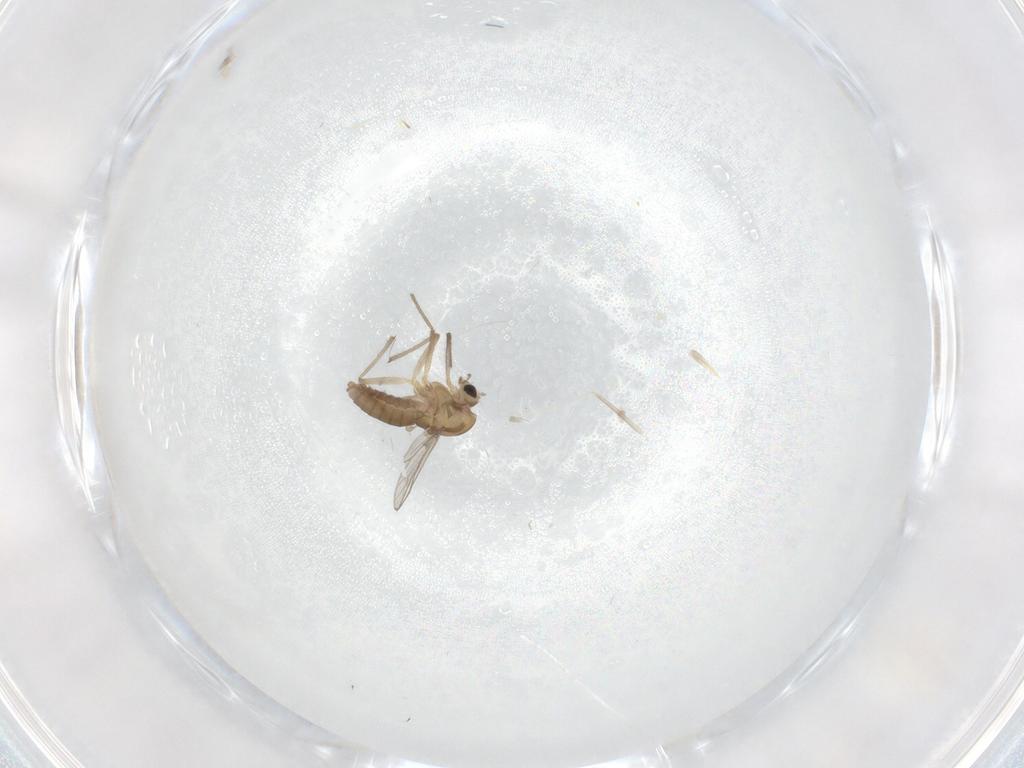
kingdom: Animalia
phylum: Arthropoda
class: Insecta
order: Diptera
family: Chironomidae
